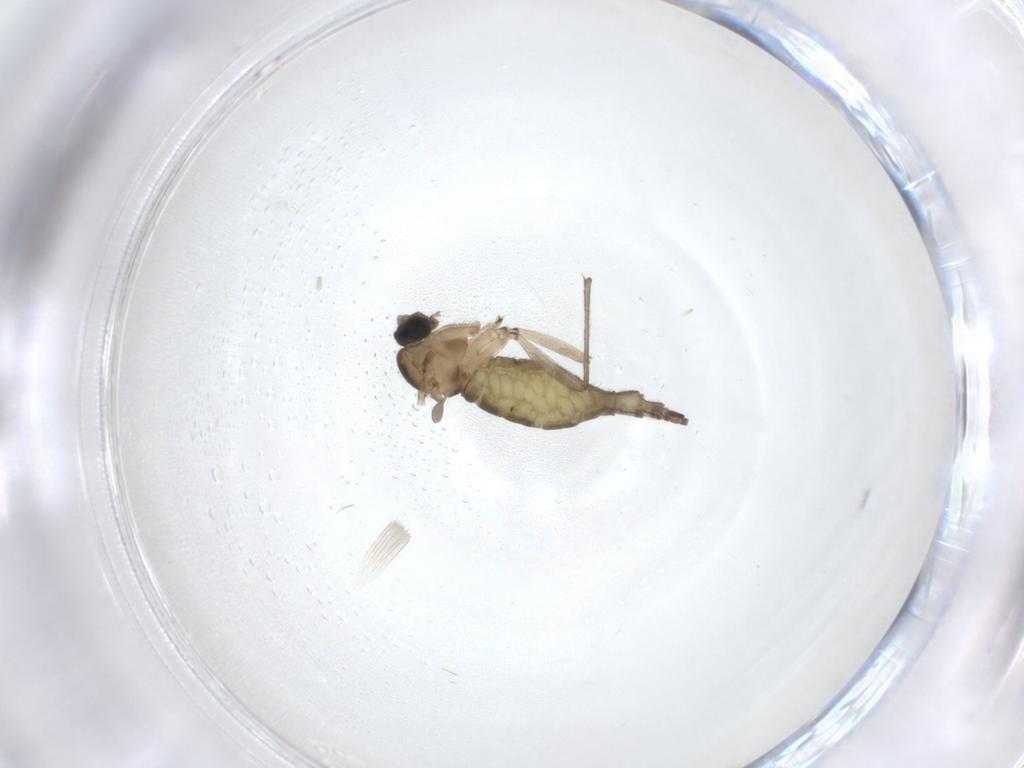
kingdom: Animalia
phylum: Arthropoda
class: Insecta
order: Diptera
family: Sciaridae
